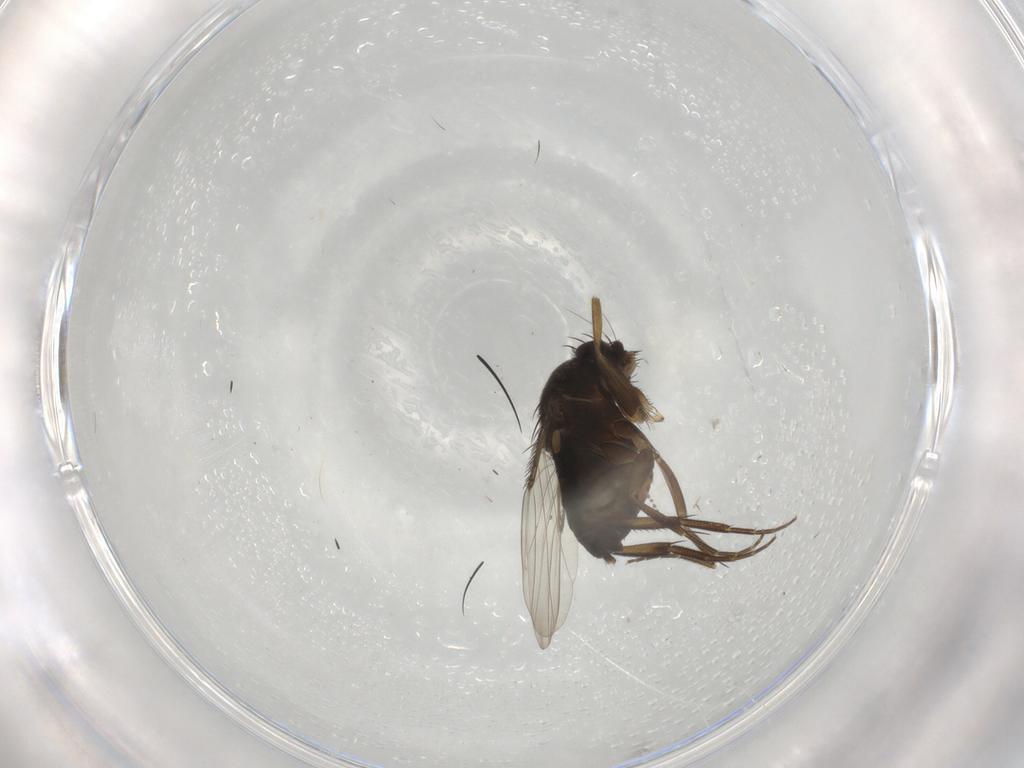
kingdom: Animalia
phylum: Arthropoda
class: Insecta
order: Diptera
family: Phoridae
